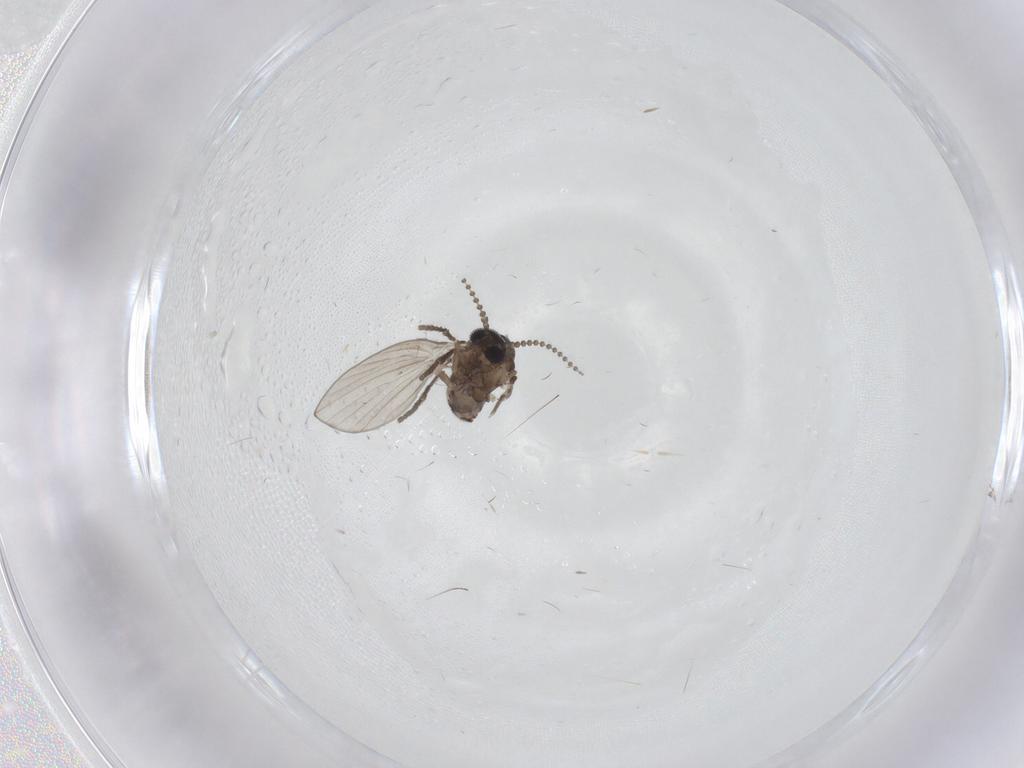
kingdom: Animalia
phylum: Arthropoda
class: Insecta
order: Diptera
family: Psychodidae
